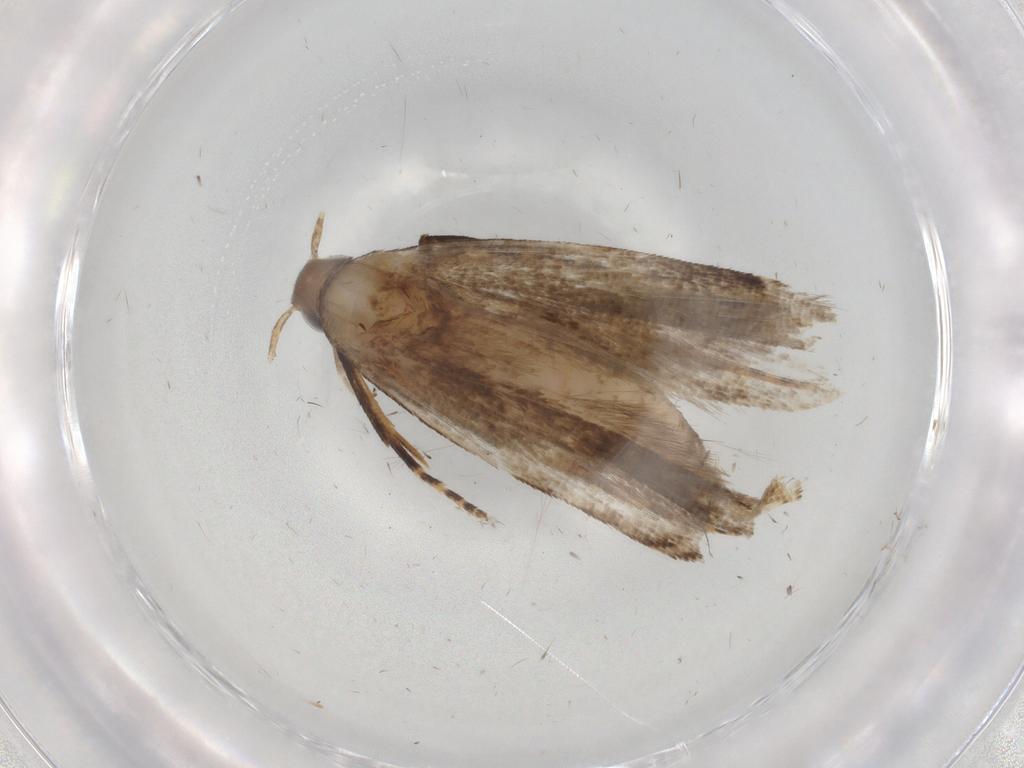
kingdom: Animalia
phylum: Arthropoda
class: Insecta
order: Lepidoptera
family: Gelechiidae
